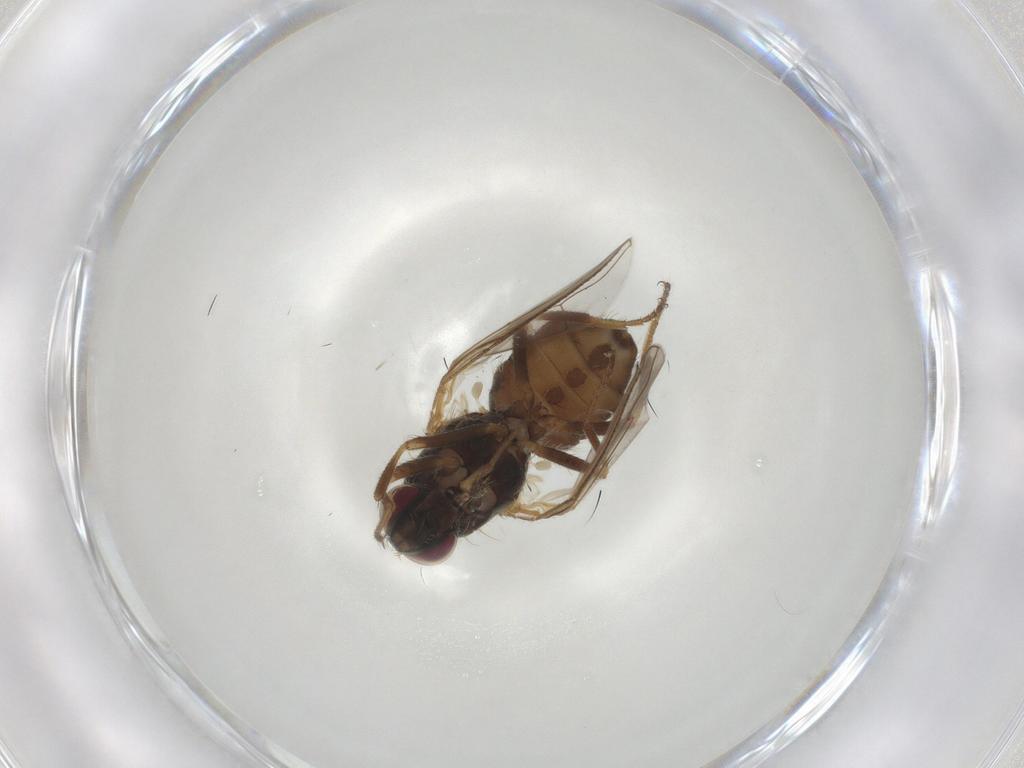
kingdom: Animalia
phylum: Arthropoda
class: Insecta
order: Diptera
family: Muscidae
